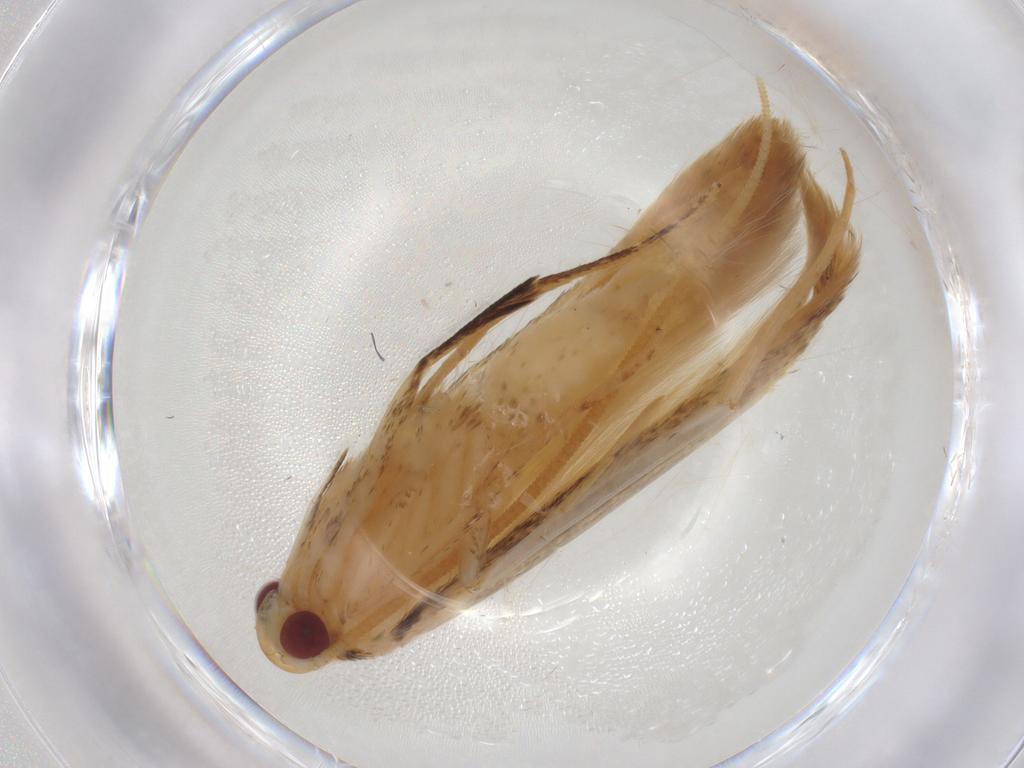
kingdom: Animalia
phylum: Arthropoda
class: Insecta
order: Lepidoptera
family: Gelechiidae
